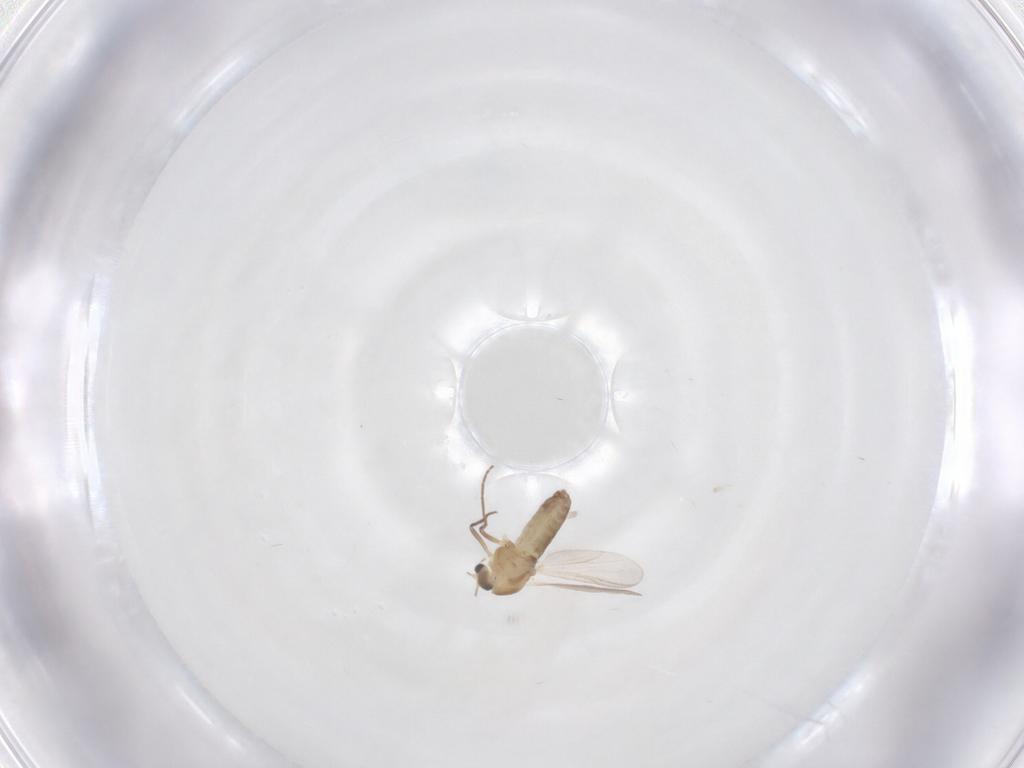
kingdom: Animalia
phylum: Arthropoda
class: Insecta
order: Diptera
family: Chironomidae
